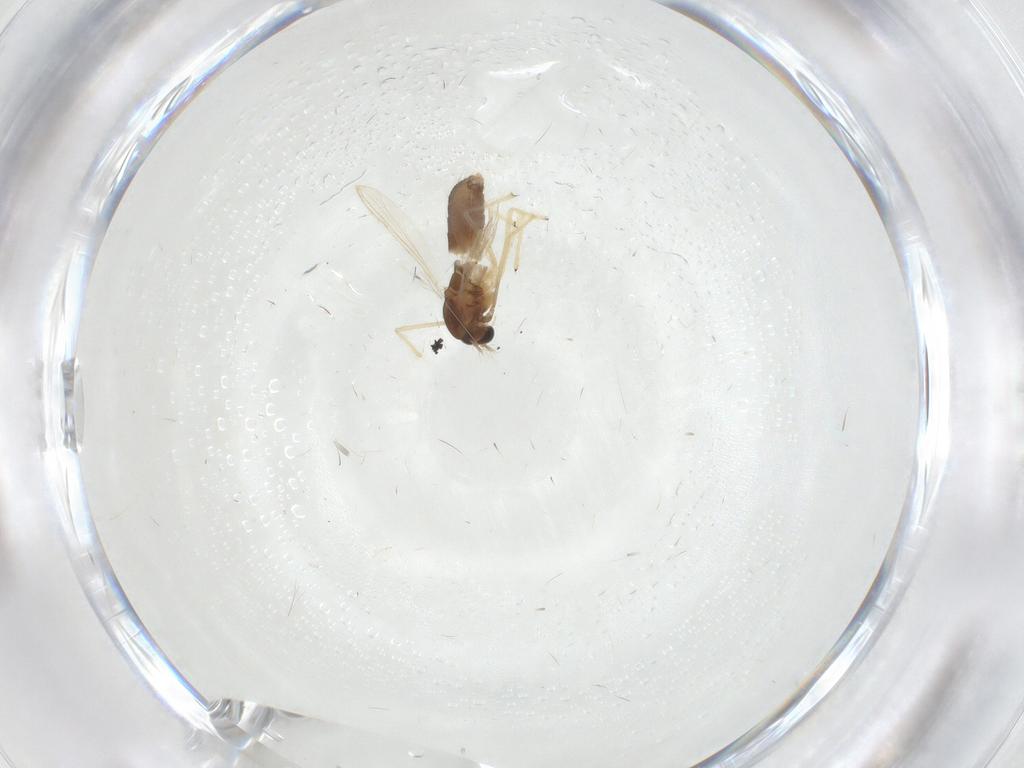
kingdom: Animalia
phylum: Arthropoda
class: Insecta
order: Diptera
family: Chironomidae
